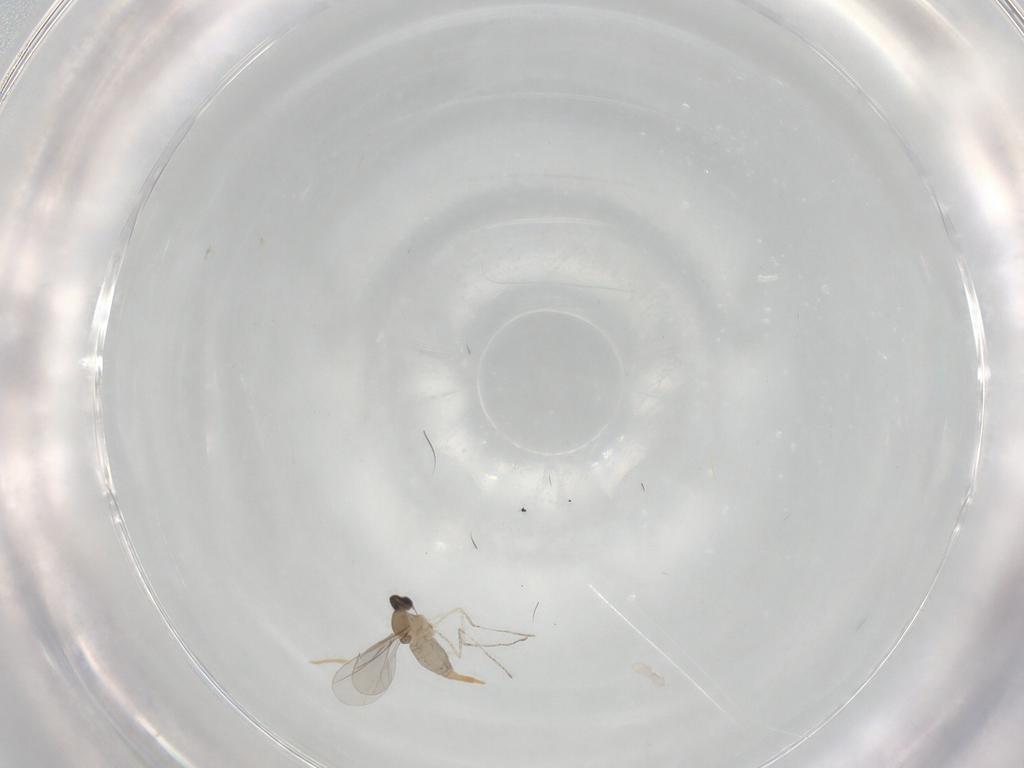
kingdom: Animalia
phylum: Arthropoda
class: Insecta
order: Diptera
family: Cecidomyiidae
